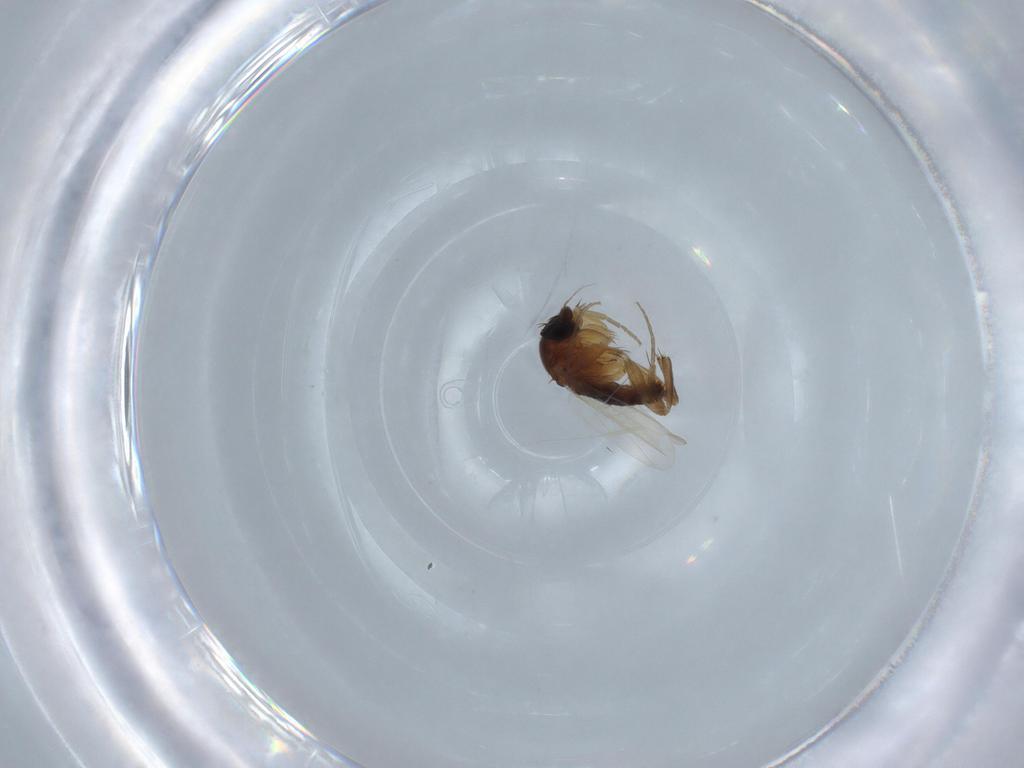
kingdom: Animalia
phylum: Arthropoda
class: Insecta
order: Diptera
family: Phoridae
